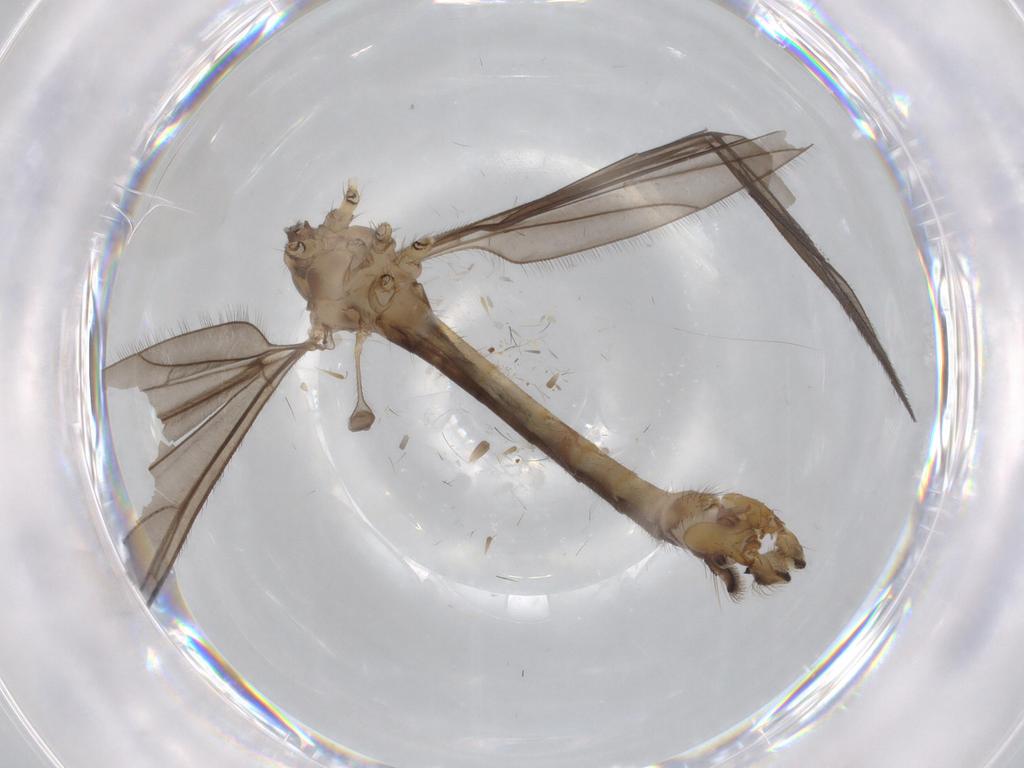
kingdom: Animalia
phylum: Arthropoda
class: Insecta
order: Diptera
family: Limoniidae
